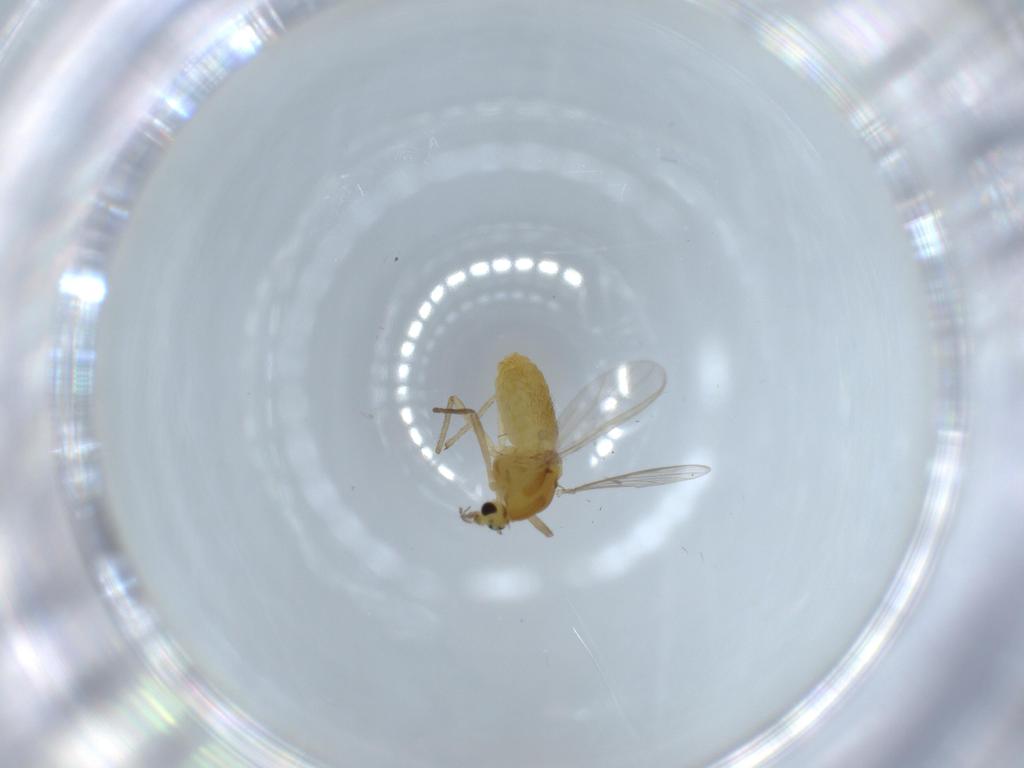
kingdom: Animalia
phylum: Arthropoda
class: Insecta
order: Diptera
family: Chironomidae
